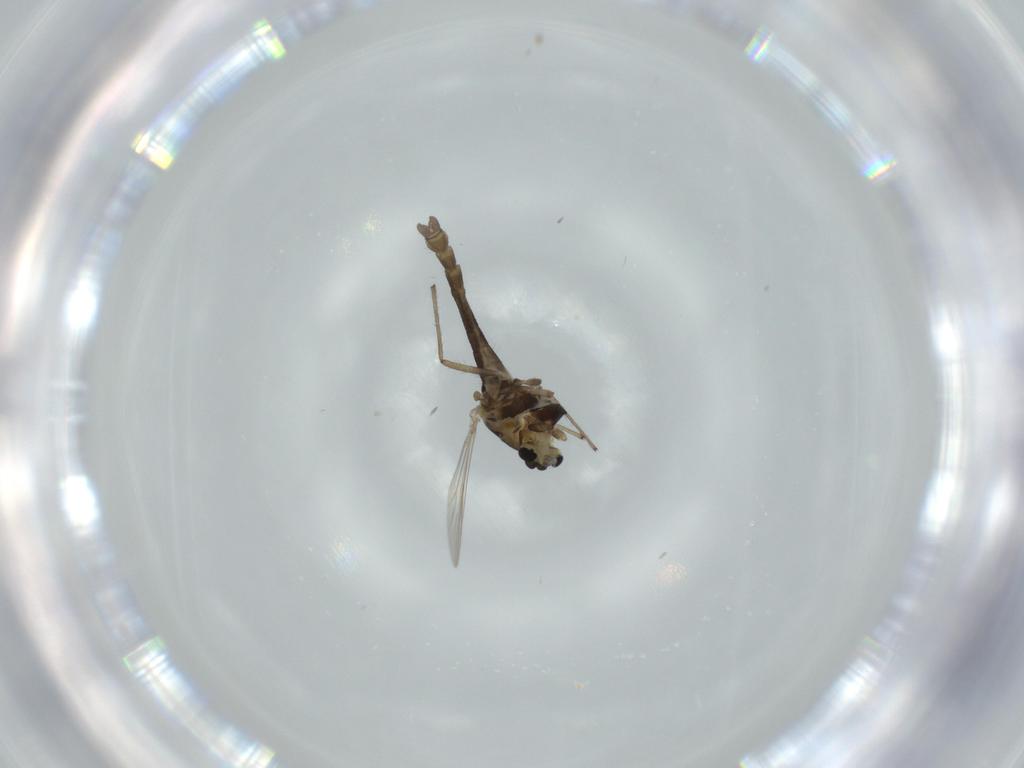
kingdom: Animalia
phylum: Arthropoda
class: Insecta
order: Diptera
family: Chironomidae
